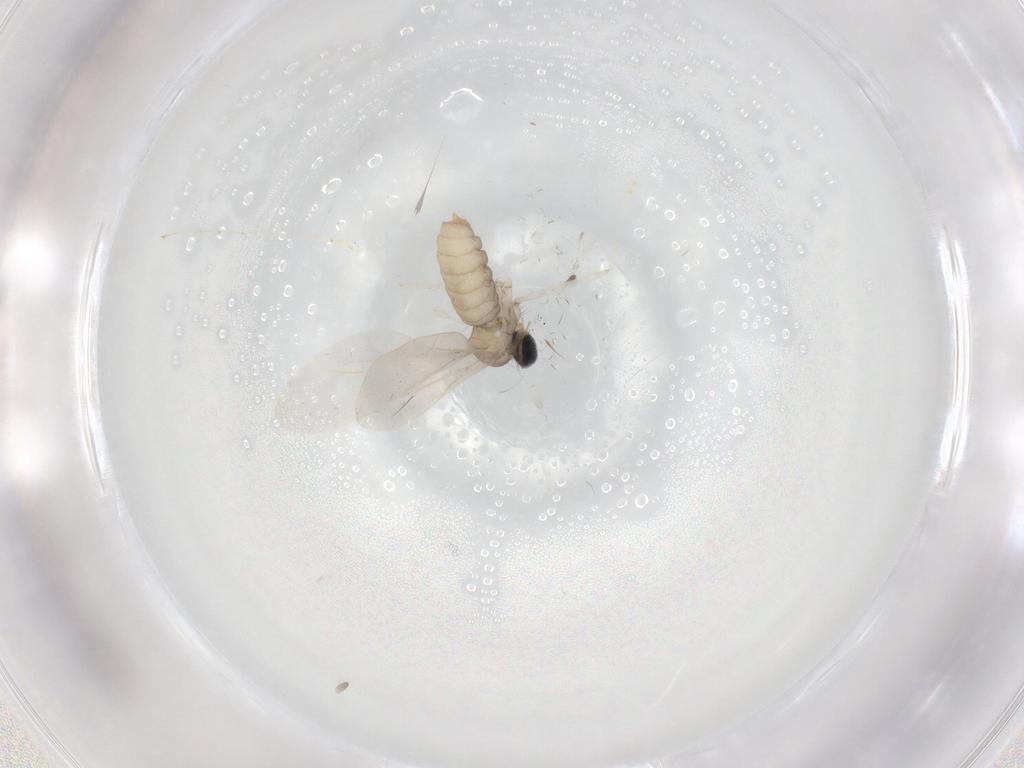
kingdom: Animalia
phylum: Arthropoda
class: Insecta
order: Diptera
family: Cecidomyiidae
